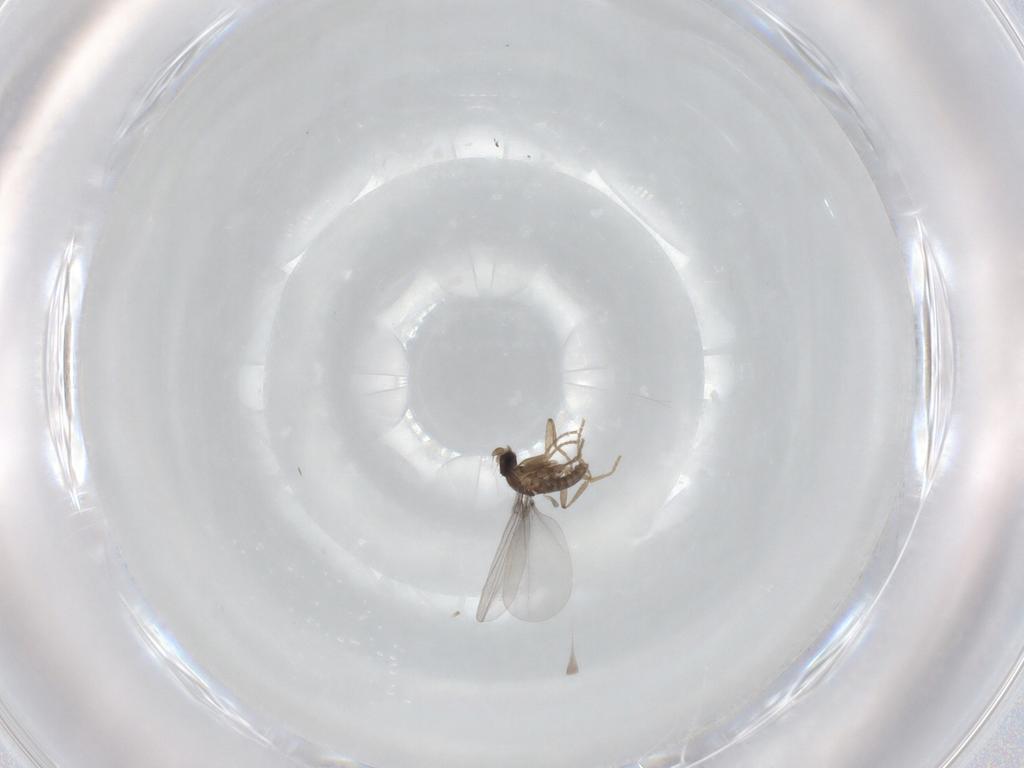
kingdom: Animalia
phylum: Arthropoda
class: Insecta
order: Diptera
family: Phoridae
